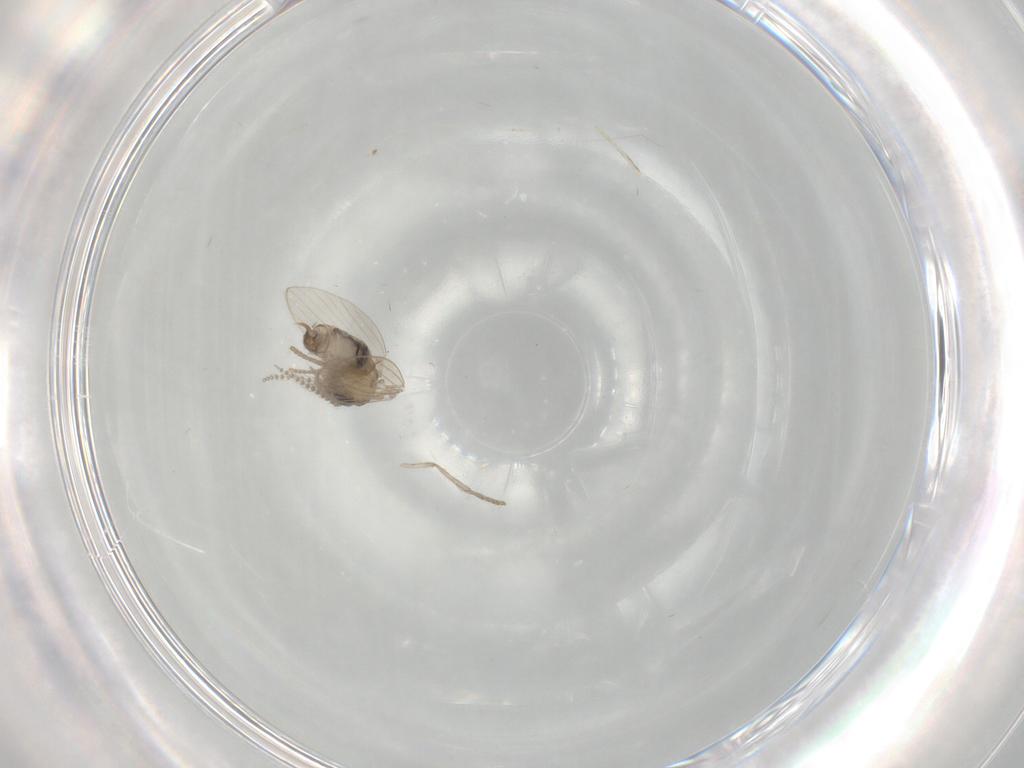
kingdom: Animalia
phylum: Arthropoda
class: Insecta
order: Diptera
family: Psychodidae
